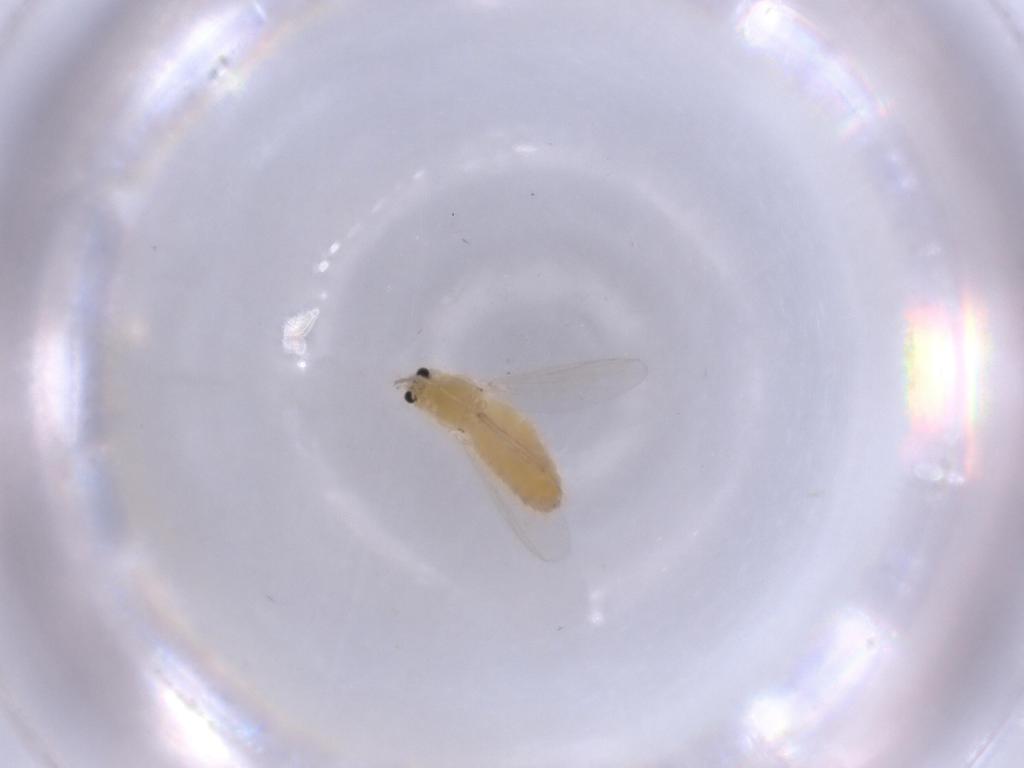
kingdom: Animalia
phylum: Arthropoda
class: Insecta
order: Diptera
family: Chironomidae
